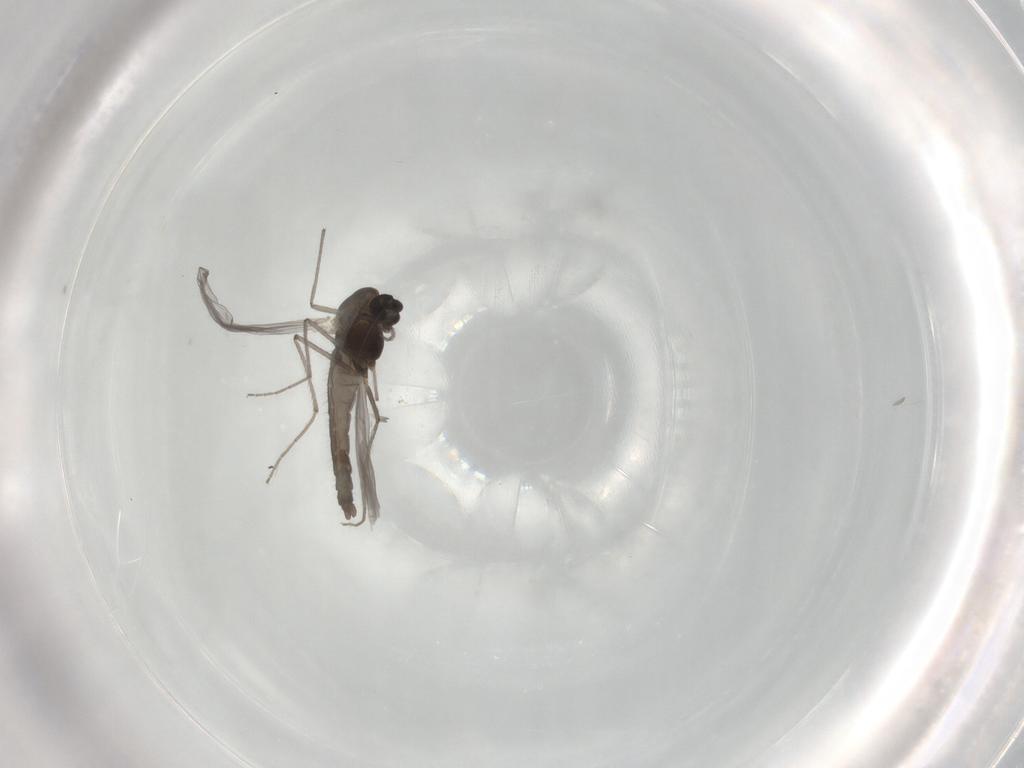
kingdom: Animalia
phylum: Arthropoda
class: Insecta
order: Diptera
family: Chironomidae
